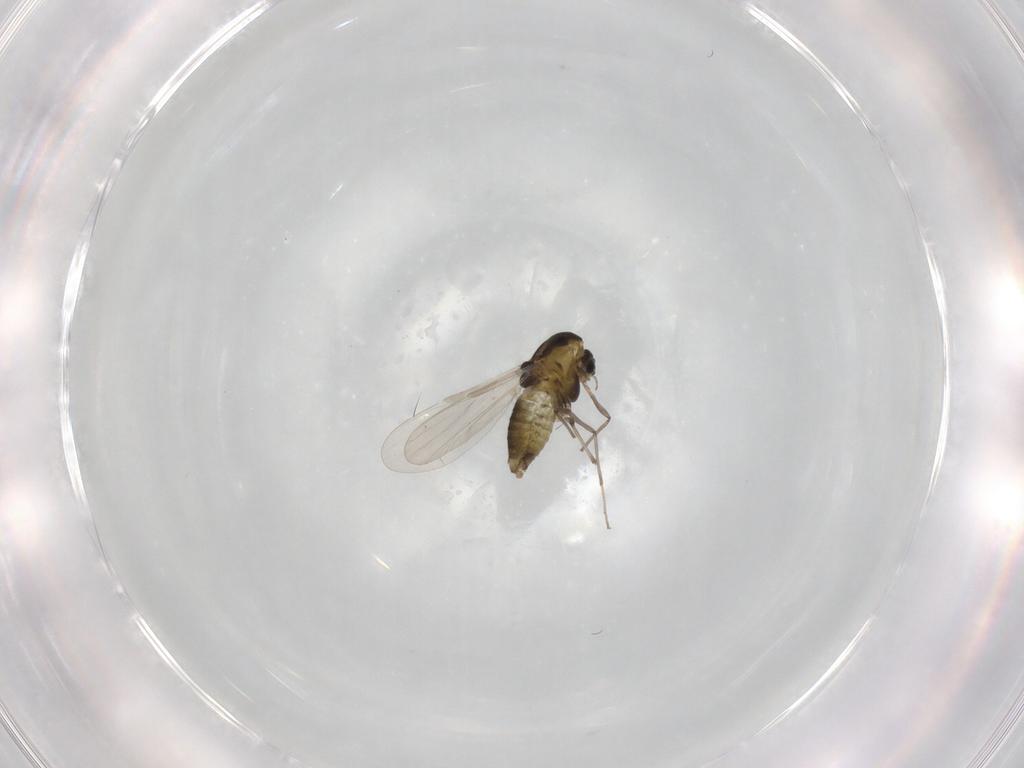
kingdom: Animalia
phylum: Arthropoda
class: Insecta
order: Diptera
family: Chironomidae
